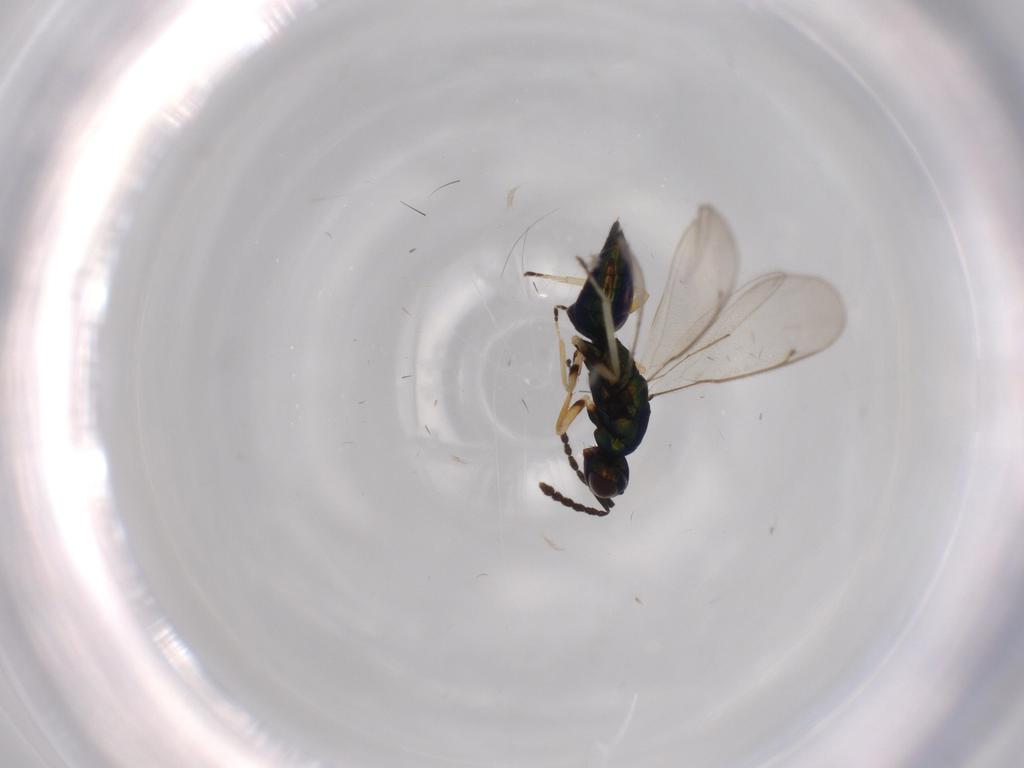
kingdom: Animalia
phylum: Arthropoda
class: Insecta
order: Hymenoptera
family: Eulophidae
